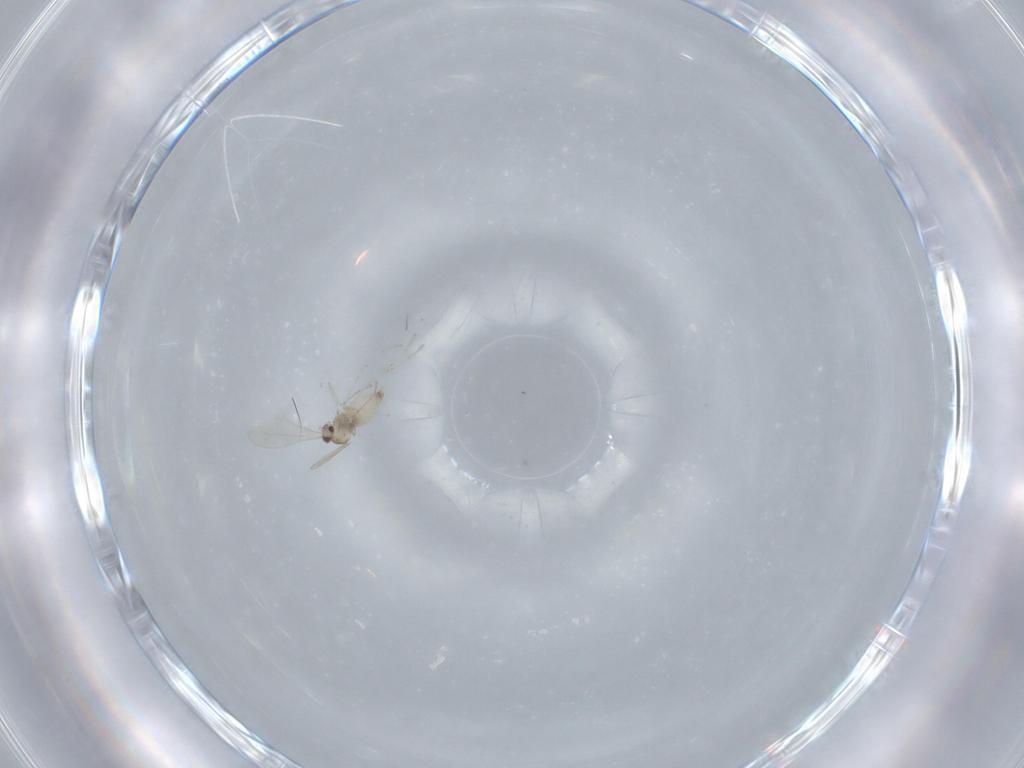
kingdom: Animalia
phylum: Arthropoda
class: Insecta
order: Diptera
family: Cecidomyiidae
